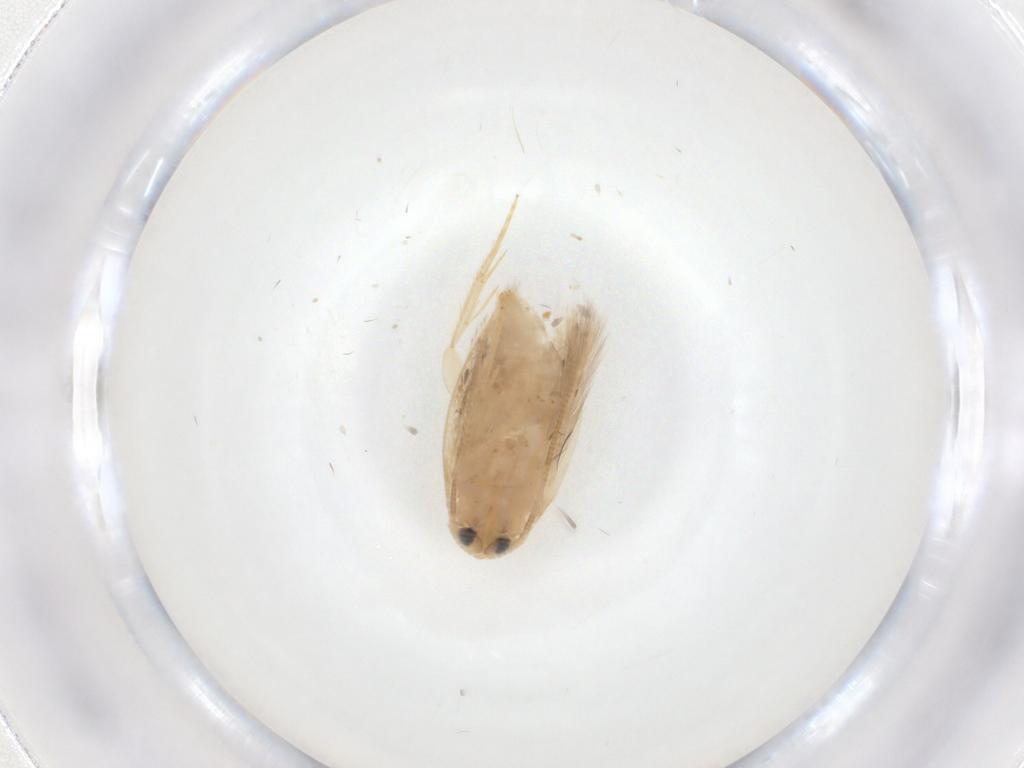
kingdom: Animalia
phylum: Arthropoda
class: Insecta
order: Lepidoptera
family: Opostegidae
